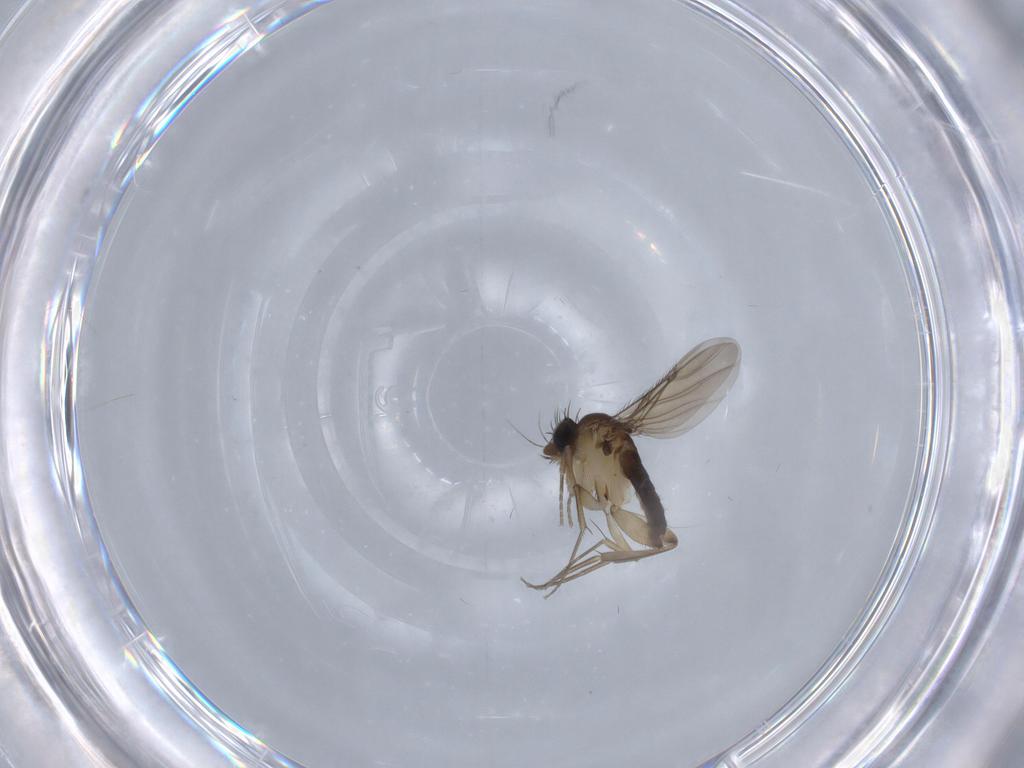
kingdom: Animalia
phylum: Arthropoda
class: Insecta
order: Diptera
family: Phoridae
